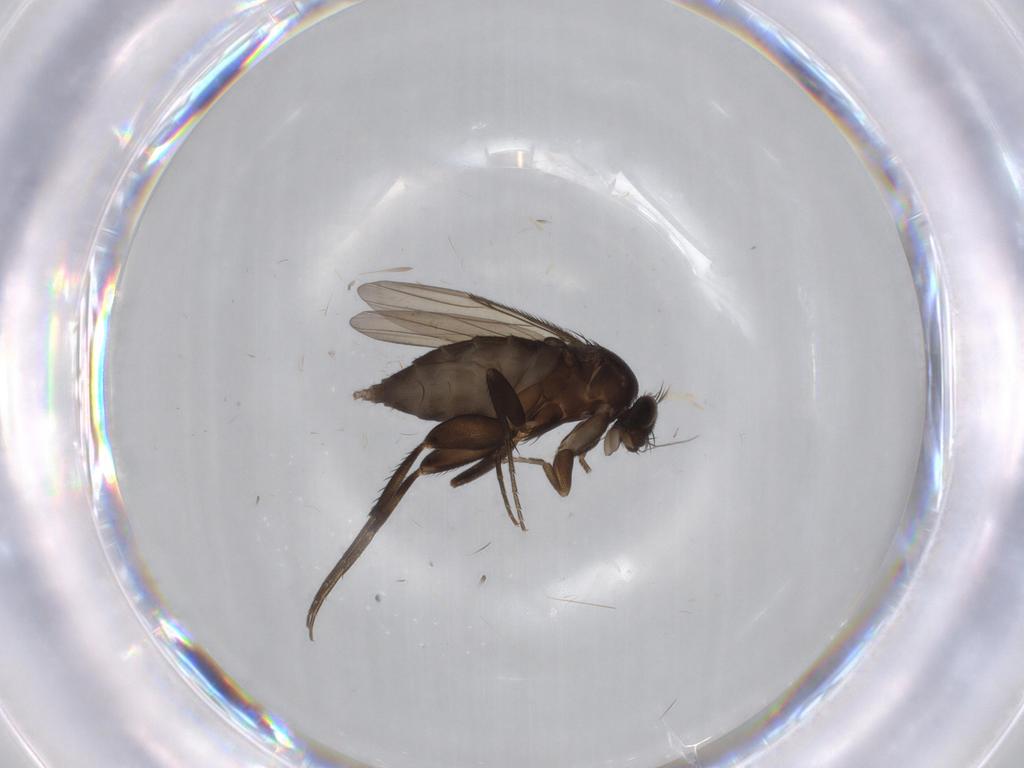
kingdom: Animalia
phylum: Arthropoda
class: Insecta
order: Diptera
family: Phoridae
